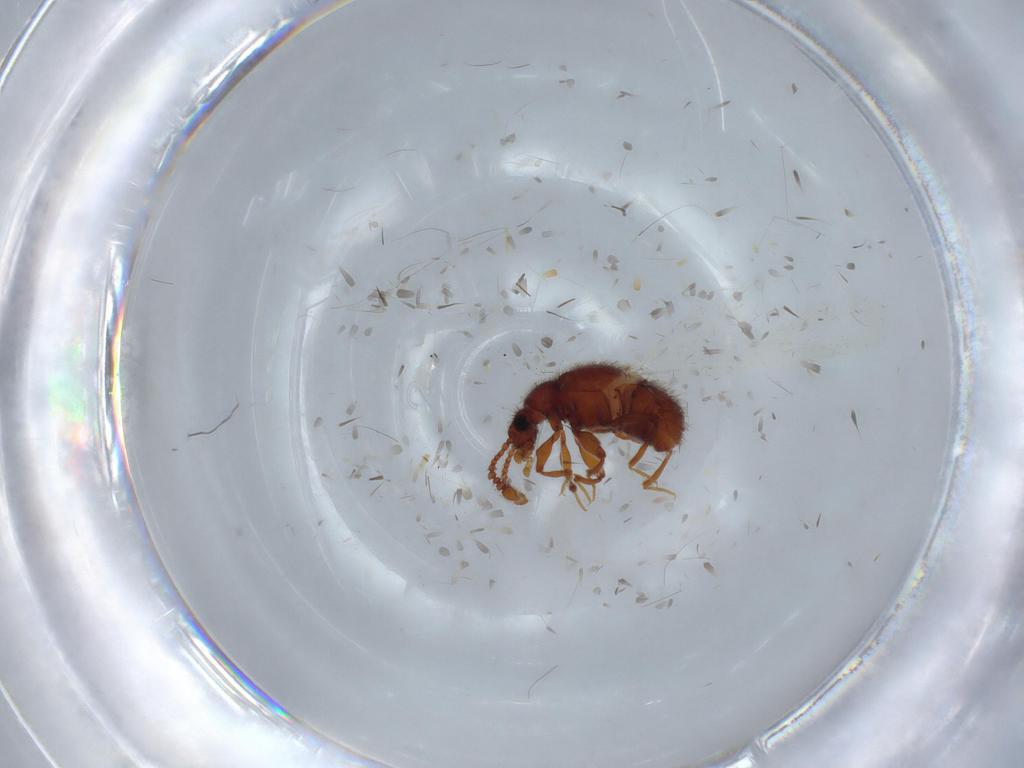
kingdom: Animalia
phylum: Arthropoda
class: Insecta
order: Coleoptera
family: Staphylinidae
